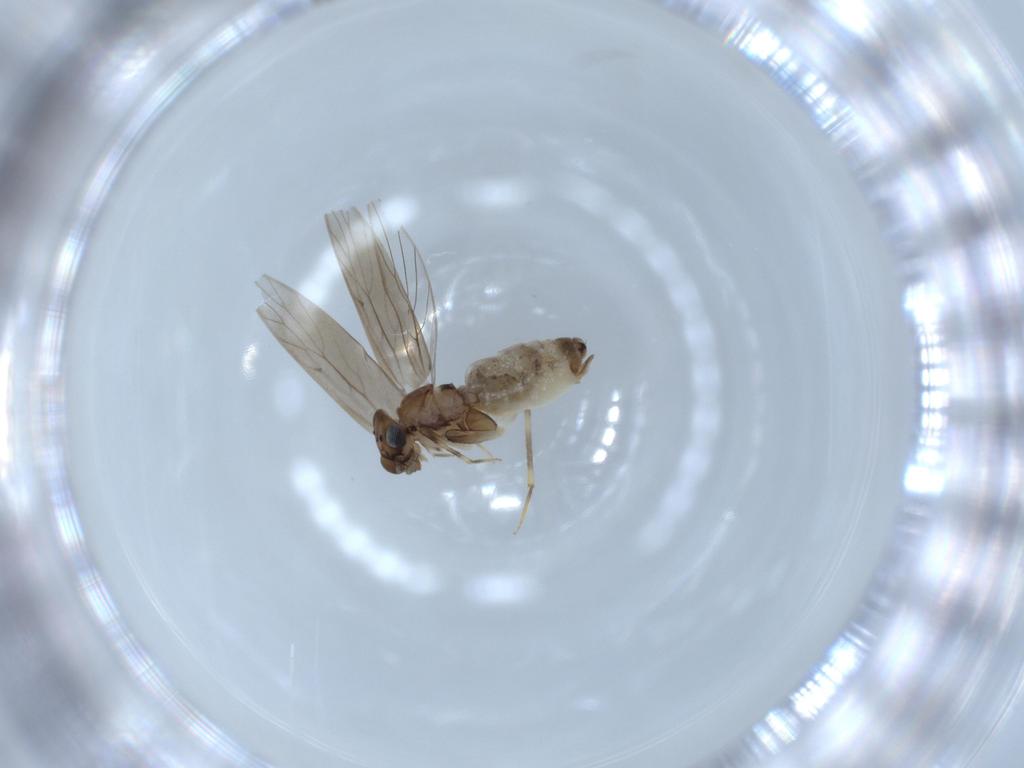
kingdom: Animalia
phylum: Arthropoda
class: Insecta
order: Psocodea
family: Lepidopsocidae
